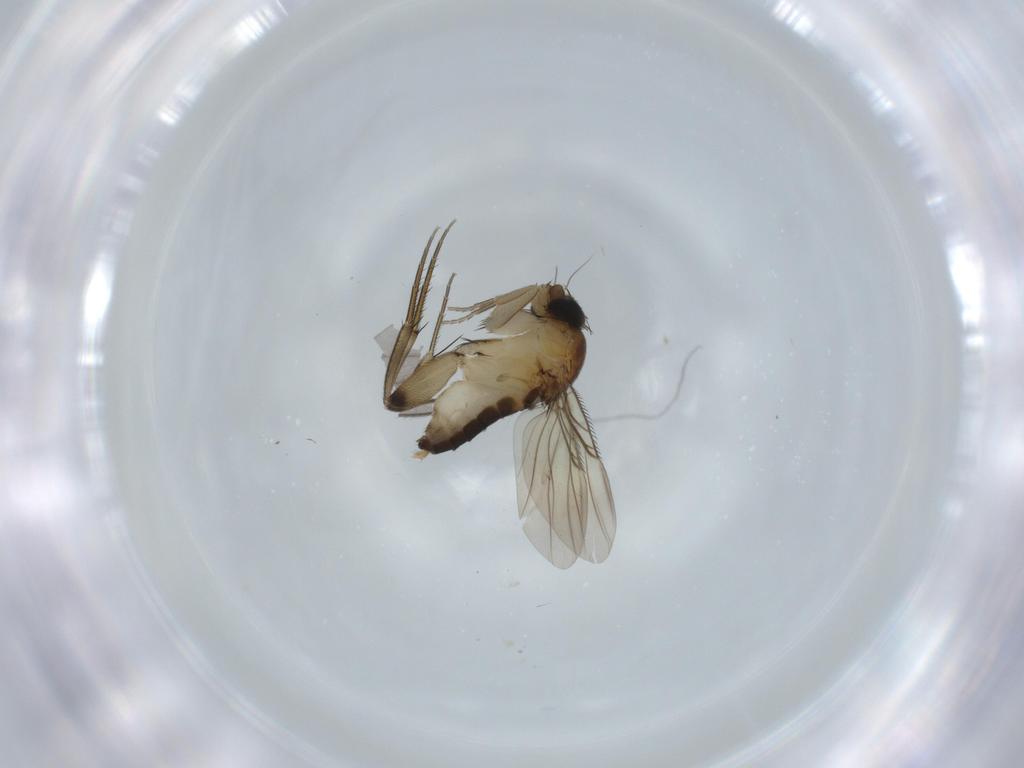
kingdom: Animalia
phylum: Arthropoda
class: Insecta
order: Diptera
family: Phoridae
